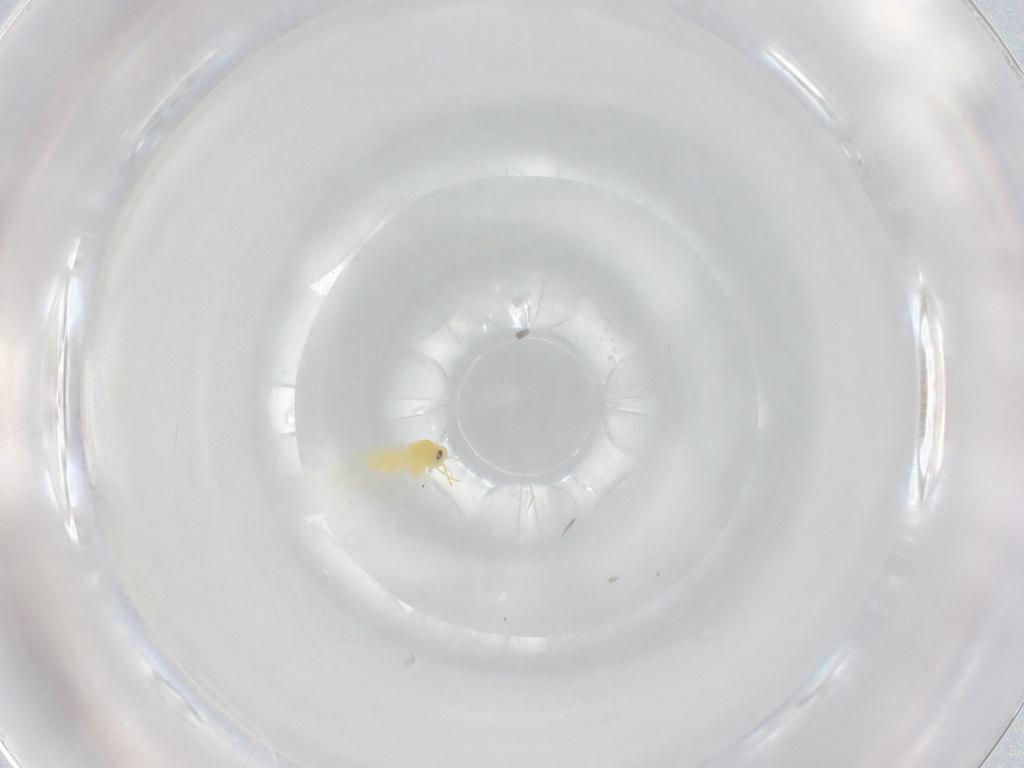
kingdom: Animalia
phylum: Arthropoda
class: Insecta
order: Hemiptera
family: Aleyrodidae
